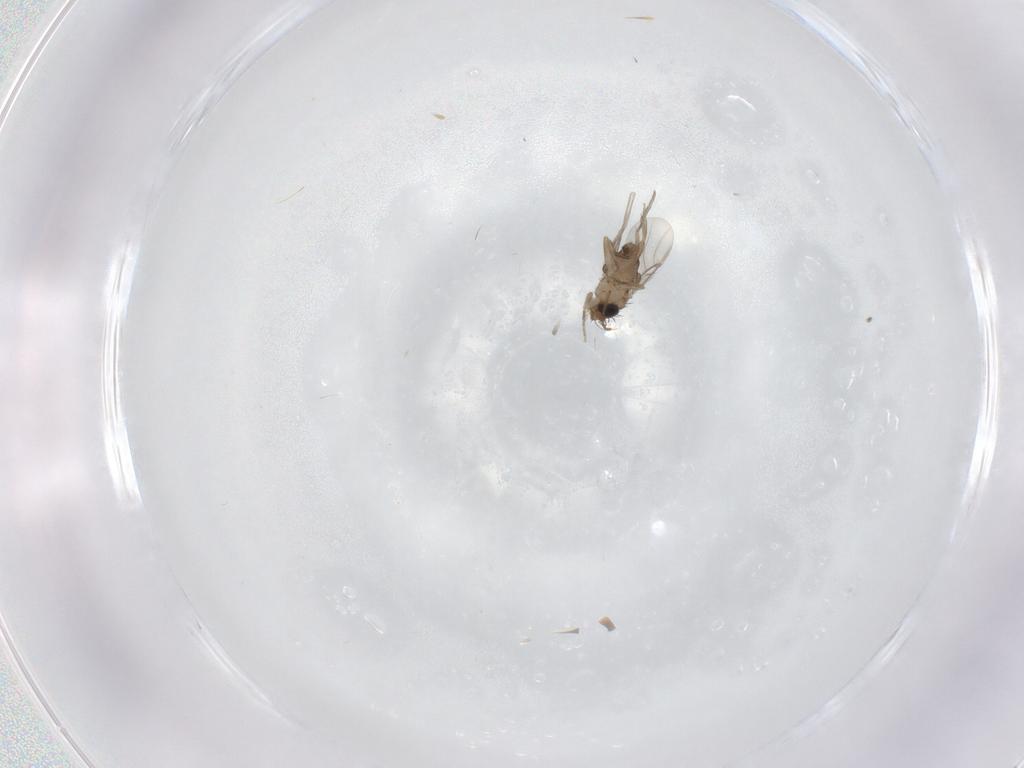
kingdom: Animalia
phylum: Arthropoda
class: Insecta
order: Diptera
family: Phoridae
